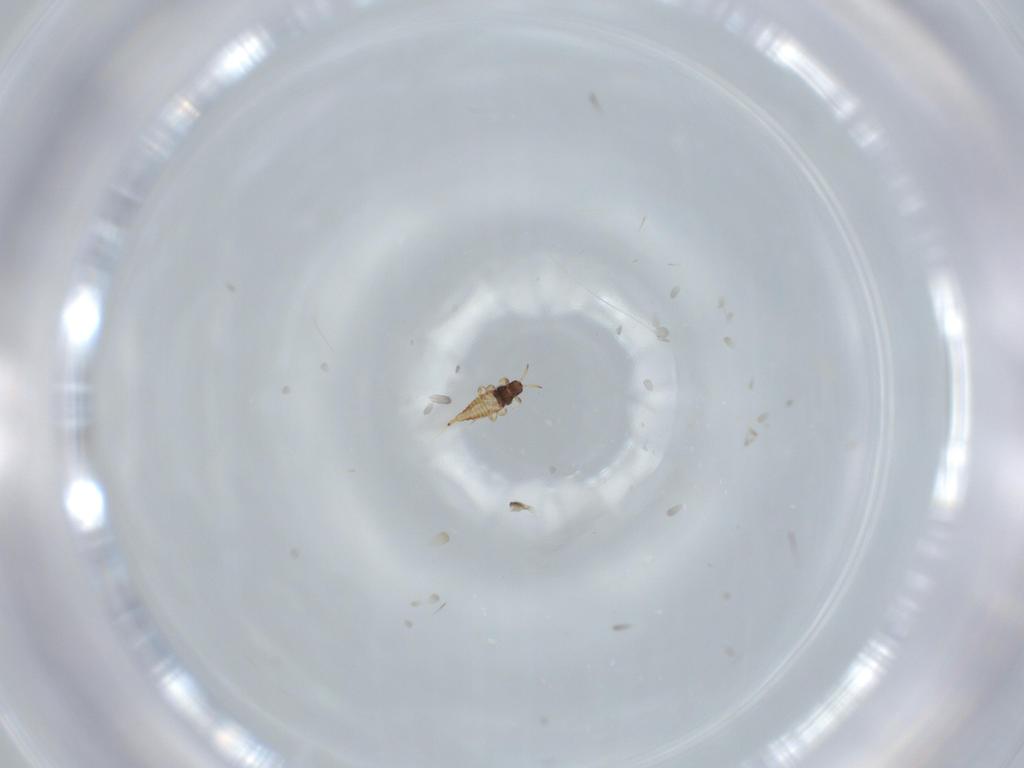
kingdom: Animalia
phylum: Arthropoda
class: Insecta
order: Thysanoptera
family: Phlaeothripidae
